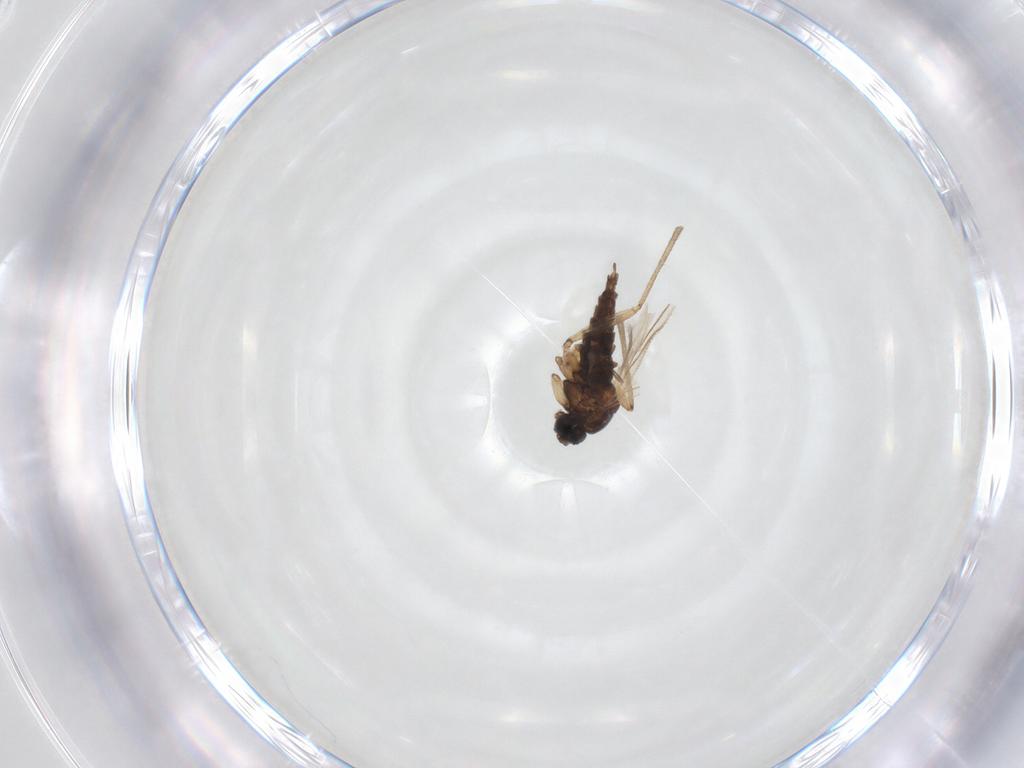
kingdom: Animalia
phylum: Arthropoda
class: Insecta
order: Diptera
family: Sciaridae
